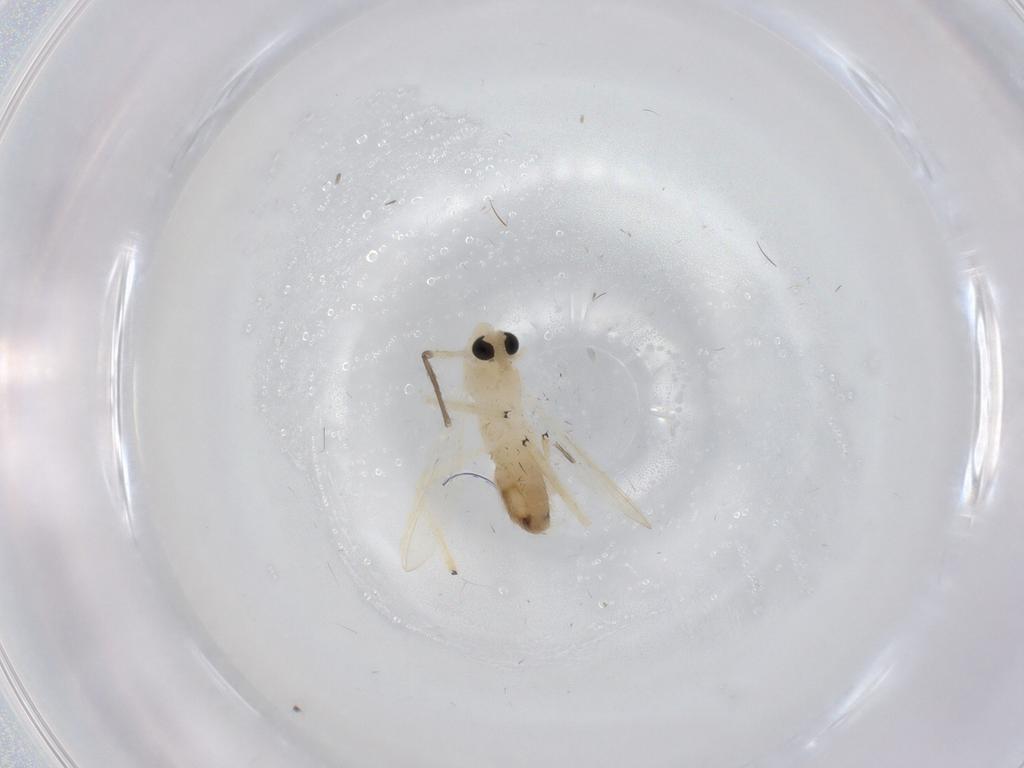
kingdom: Animalia
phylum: Arthropoda
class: Insecta
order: Diptera
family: Chironomidae
